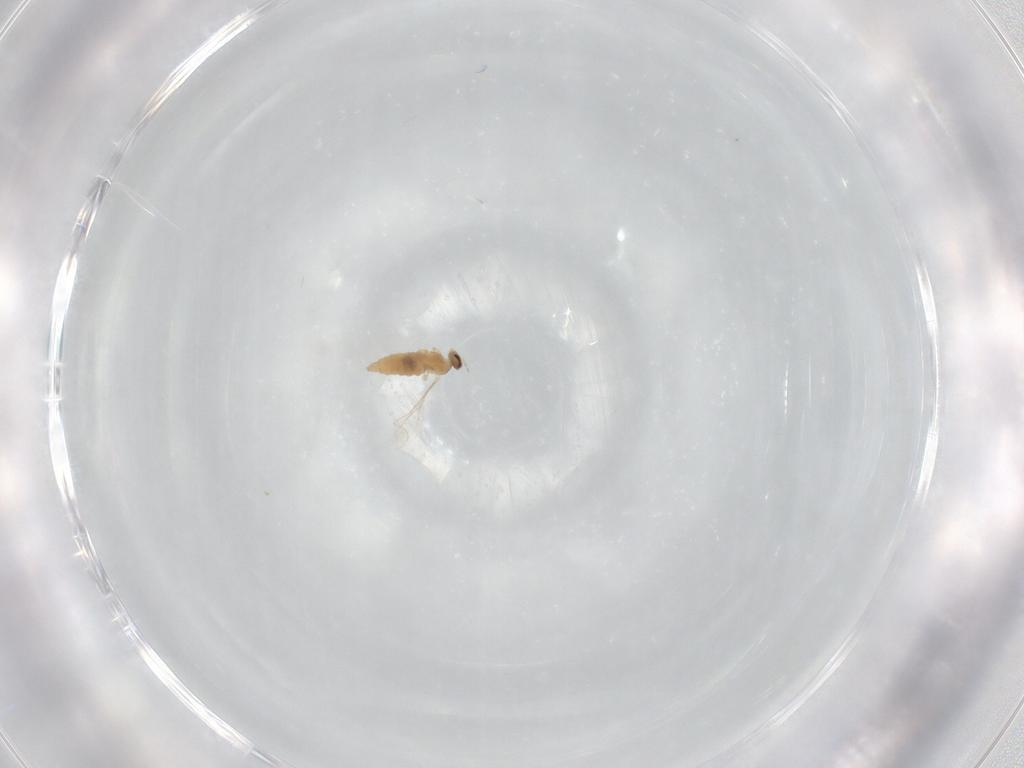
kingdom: Animalia
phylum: Arthropoda
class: Insecta
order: Diptera
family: Cecidomyiidae
